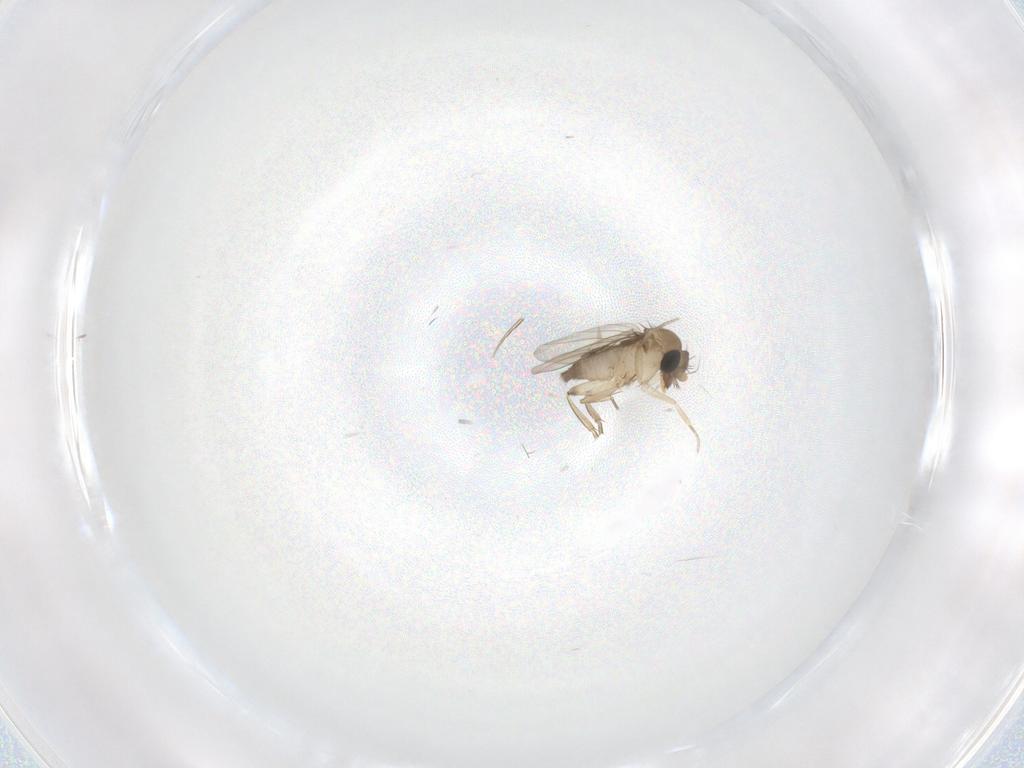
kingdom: Animalia
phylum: Arthropoda
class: Insecta
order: Diptera
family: Phoridae
